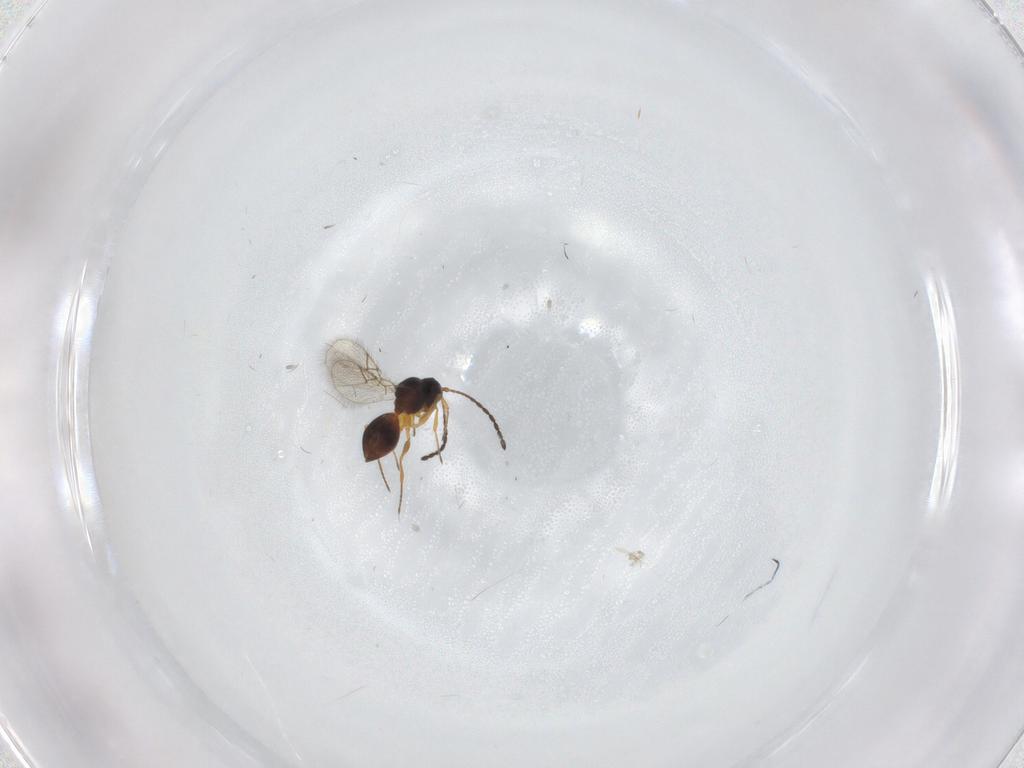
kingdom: Animalia
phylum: Arthropoda
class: Insecta
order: Hymenoptera
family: Figitidae
